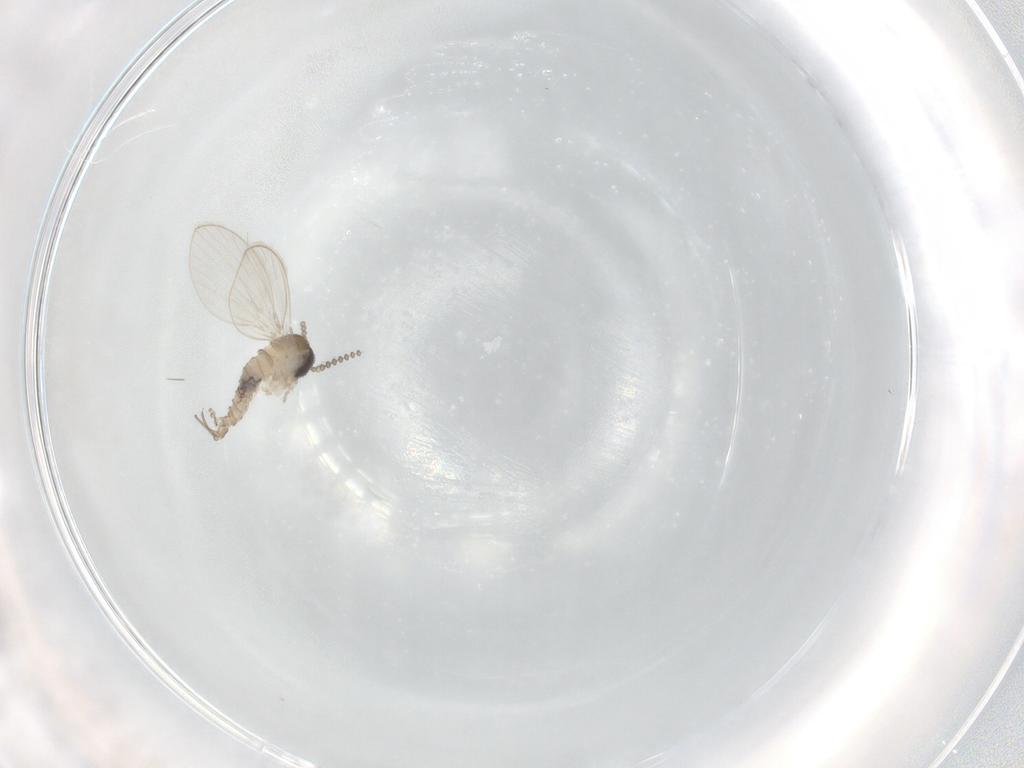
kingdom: Animalia
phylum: Arthropoda
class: Insecta
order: Diptera
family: Psychodidae
